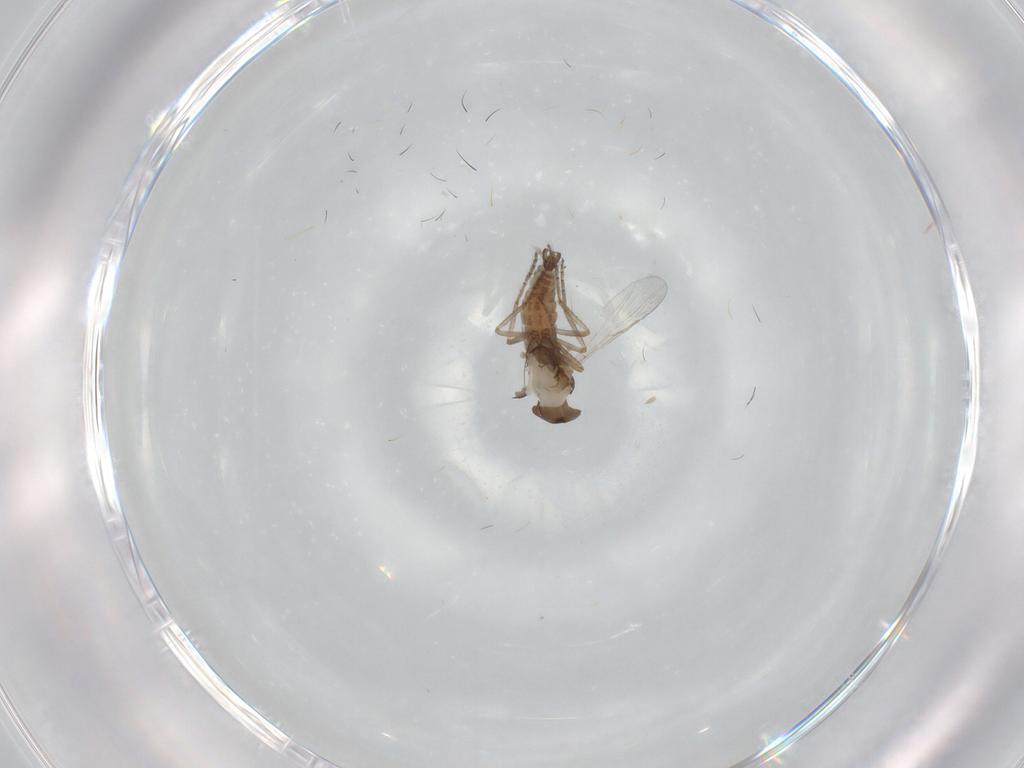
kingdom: Animalia
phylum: Arthropoda
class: Insecta
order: Diptera
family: Ceratopogonidae
